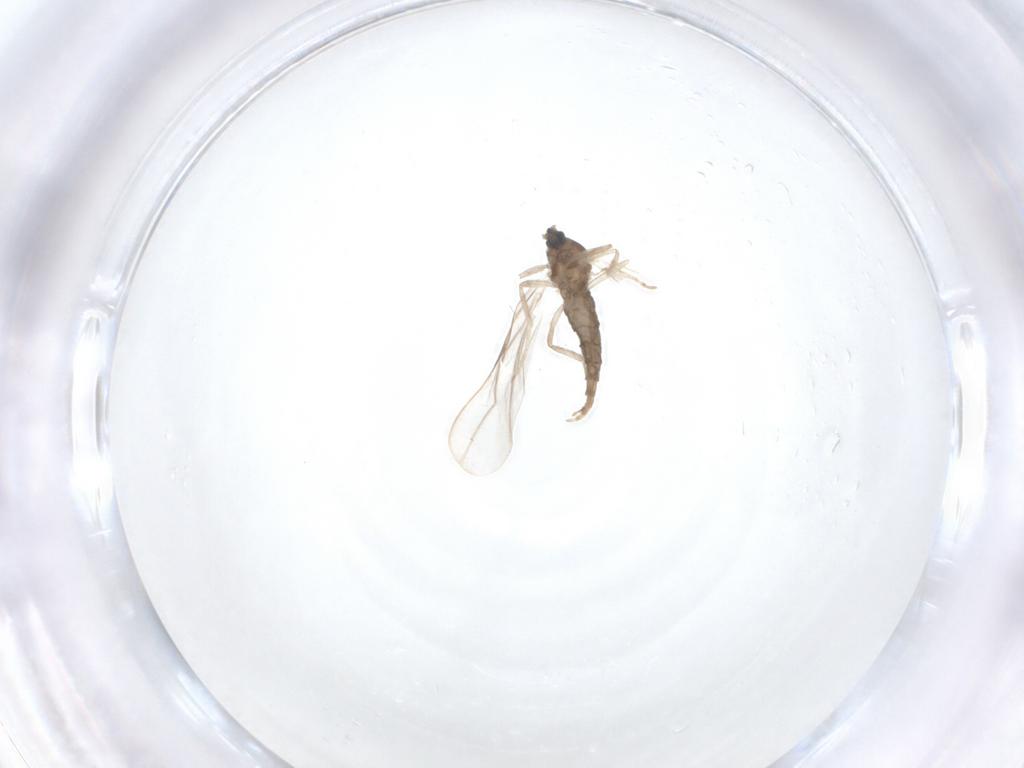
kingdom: Animalia
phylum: Arthropoda
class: Insecta
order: Diptera
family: Cecidomyiidae
